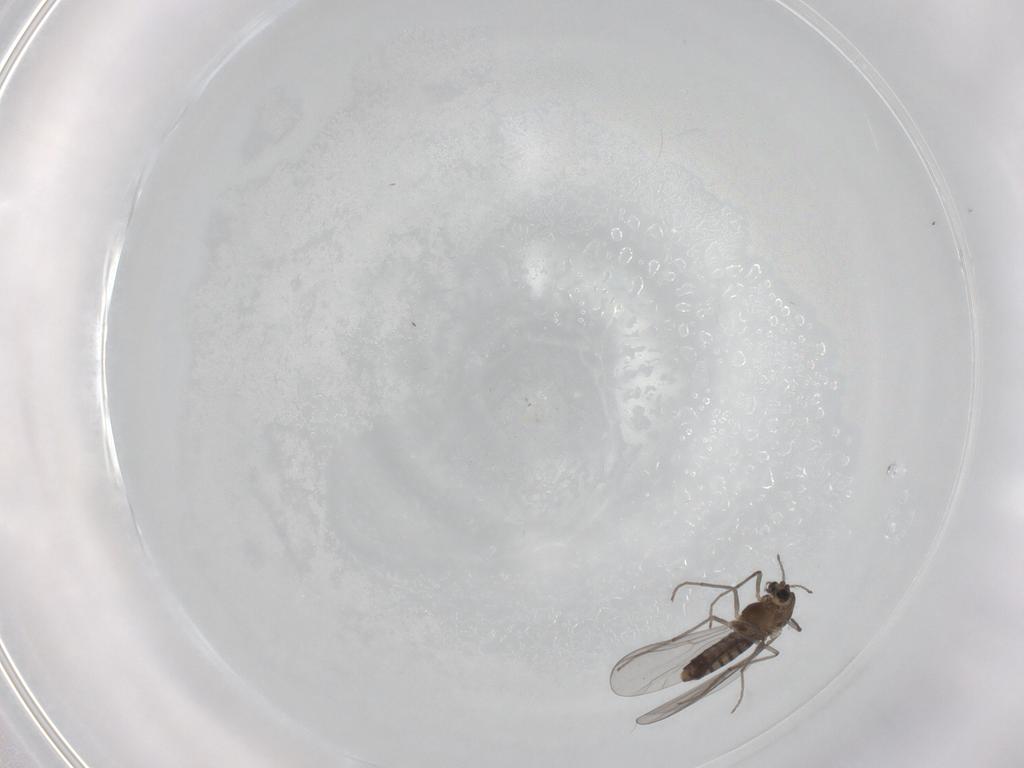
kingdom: Animalia
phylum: Arthropoda
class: Insecta
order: Diptera
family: Chironomidae
